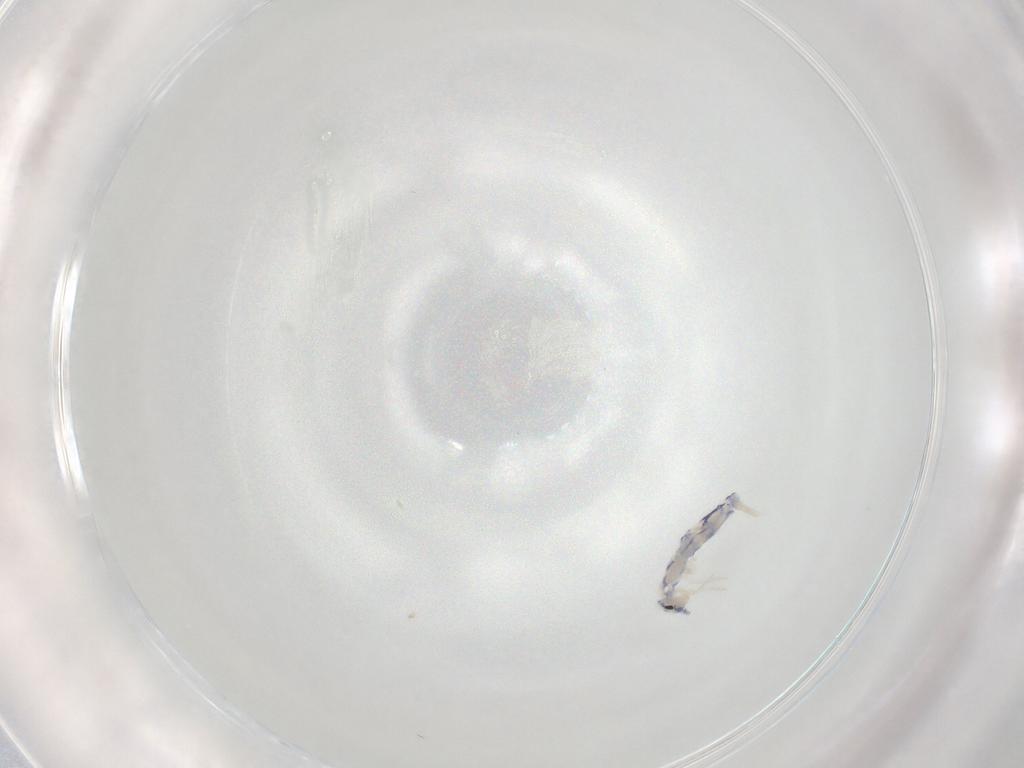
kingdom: Animalia
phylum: Arthropoda
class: Collembola
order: Entomobryomorpha
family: Entomobryidae
